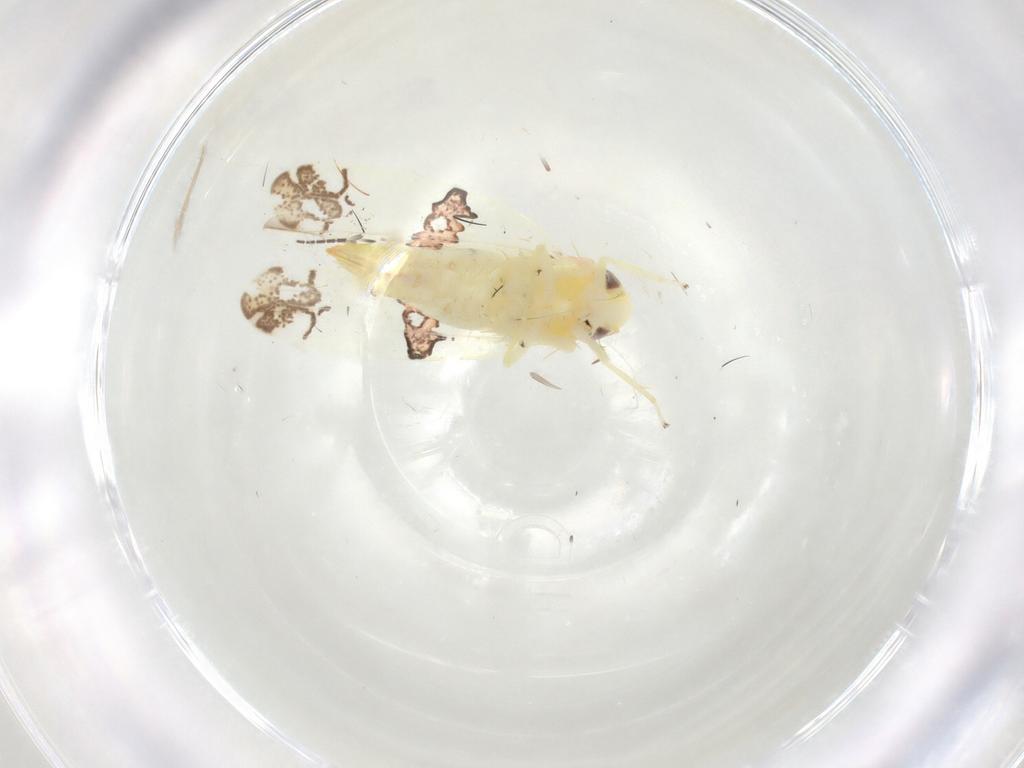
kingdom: Animalia
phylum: Arthropoda
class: Insecta
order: Hemiptera
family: Cicadellidae
